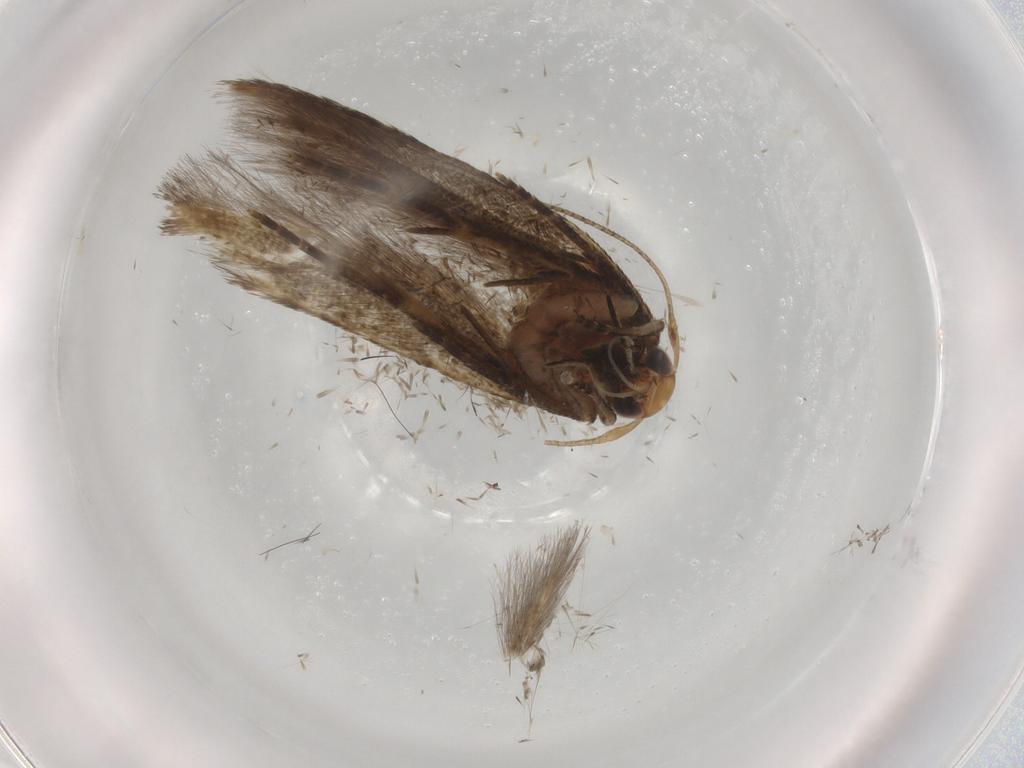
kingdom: Animalia
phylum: Arthropoda
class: Insecta
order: Lepidoptera
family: Cosmopterigidae
